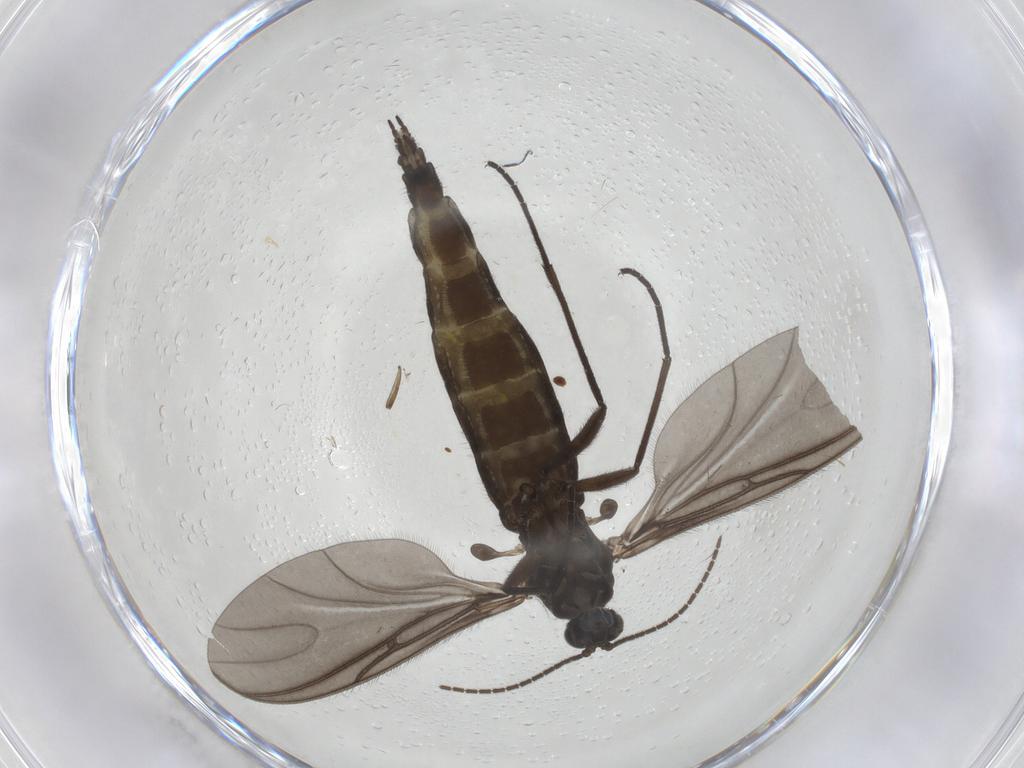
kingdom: Animalia
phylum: Arthropoda
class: Insecta
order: Diptera
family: Sciaridae
